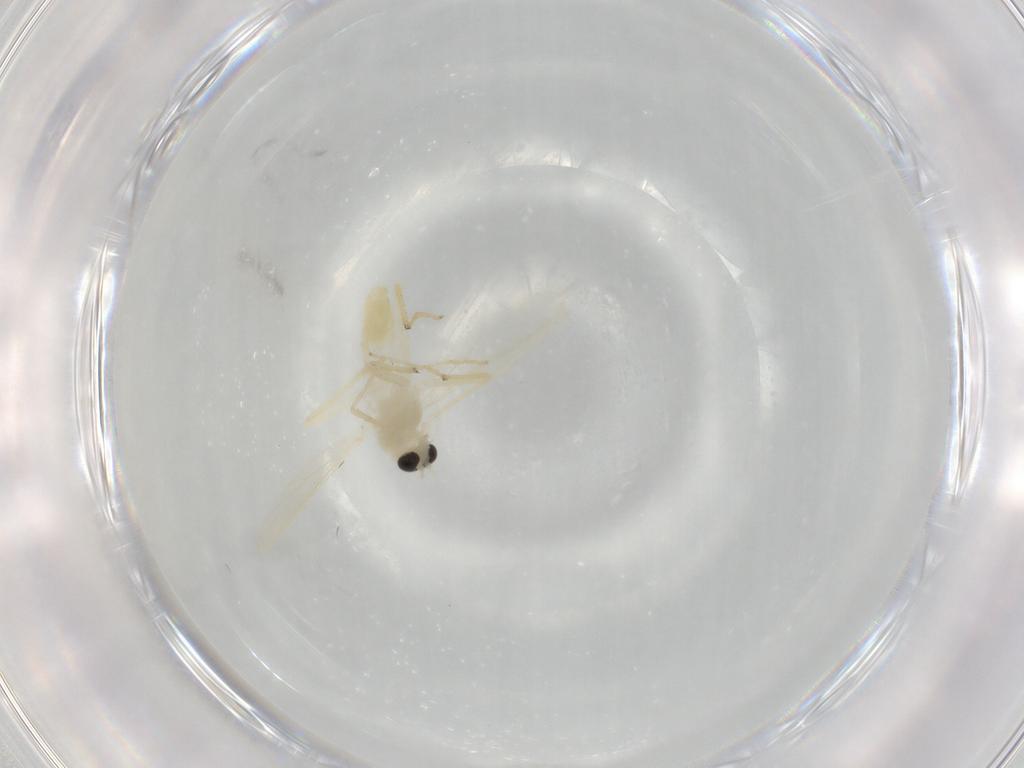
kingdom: Animalia
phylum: Arthropoda
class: Insecta
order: Diptera
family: Chironomidae
